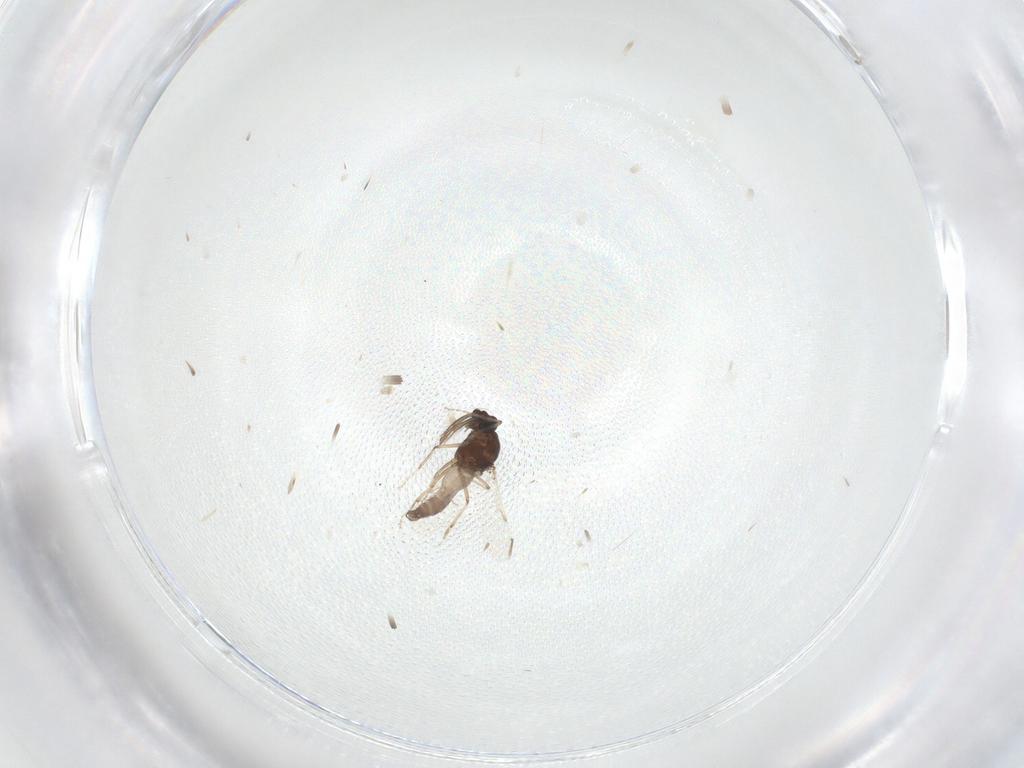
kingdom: Animalia
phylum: Arthropoda
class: Insecta
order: Diptera
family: Ceratopogonidae
